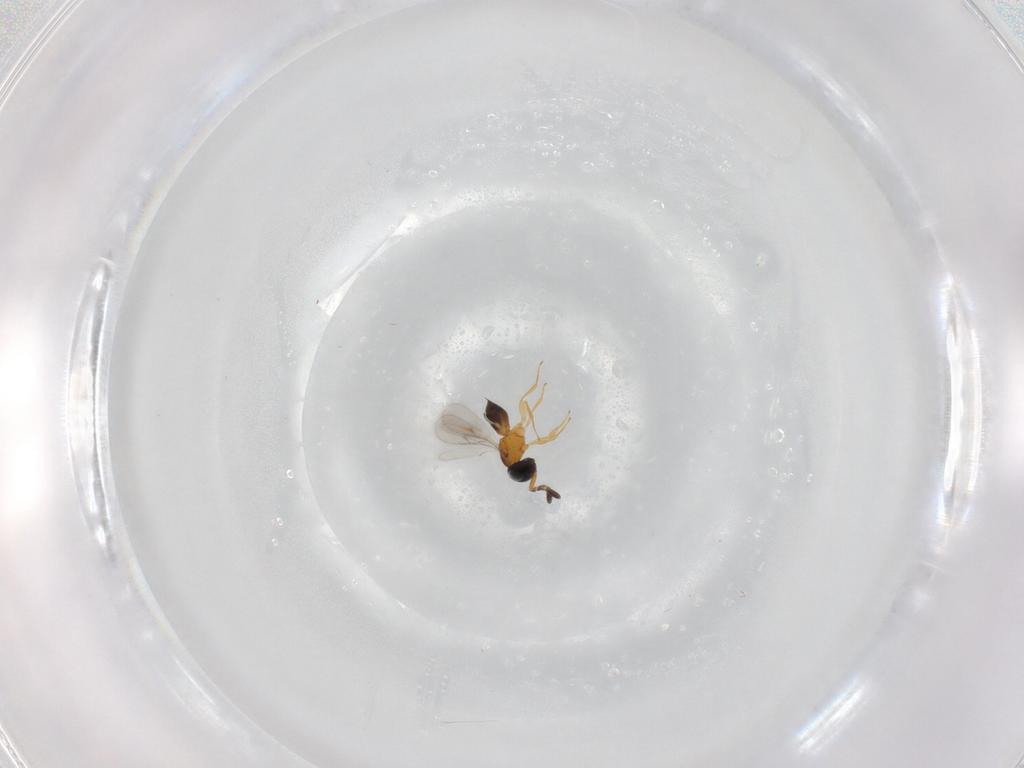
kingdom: Animalia
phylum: Arthropoda
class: Insecta
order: Hymenoptera
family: Scelionidae
